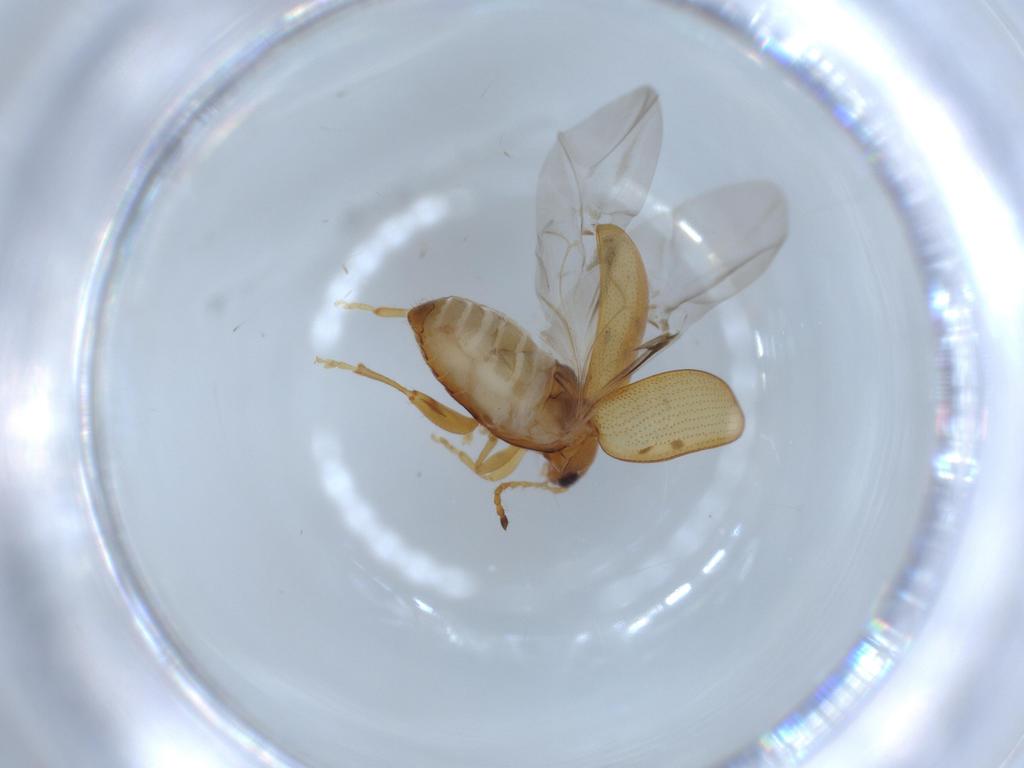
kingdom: Animalia
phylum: Arthropoda
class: Insecta
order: Coleoptera
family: Chrysomelidae
